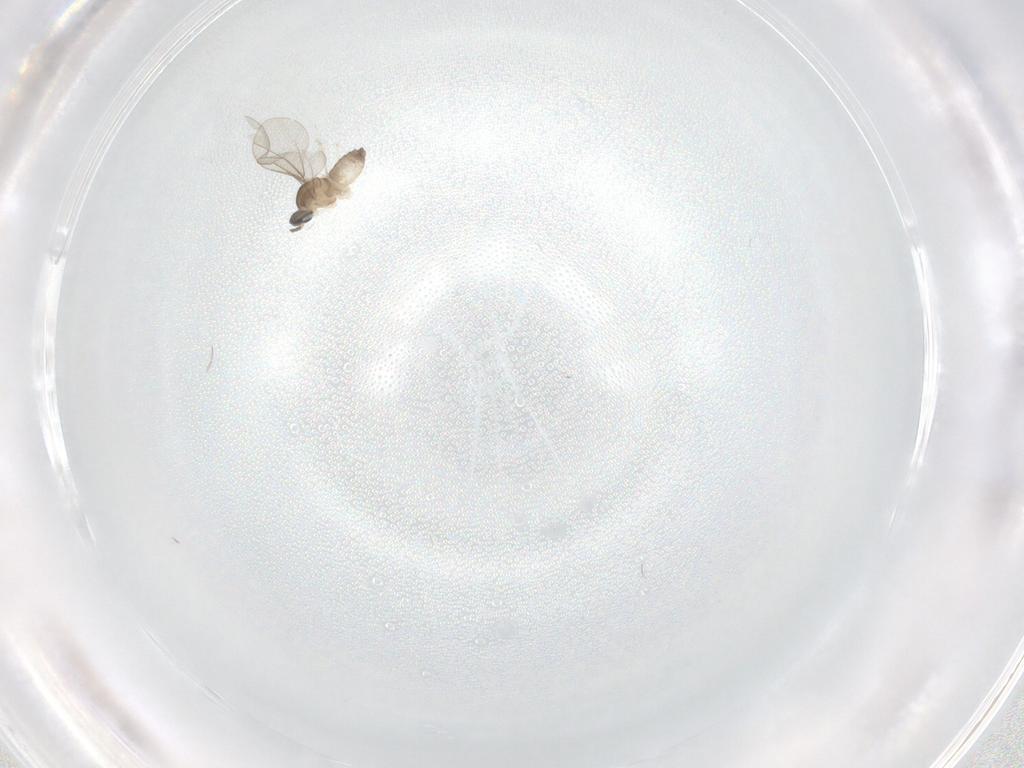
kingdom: Animalia
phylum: Arthropoda
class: Insecta
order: Diptera
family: Cecidomyiidae
